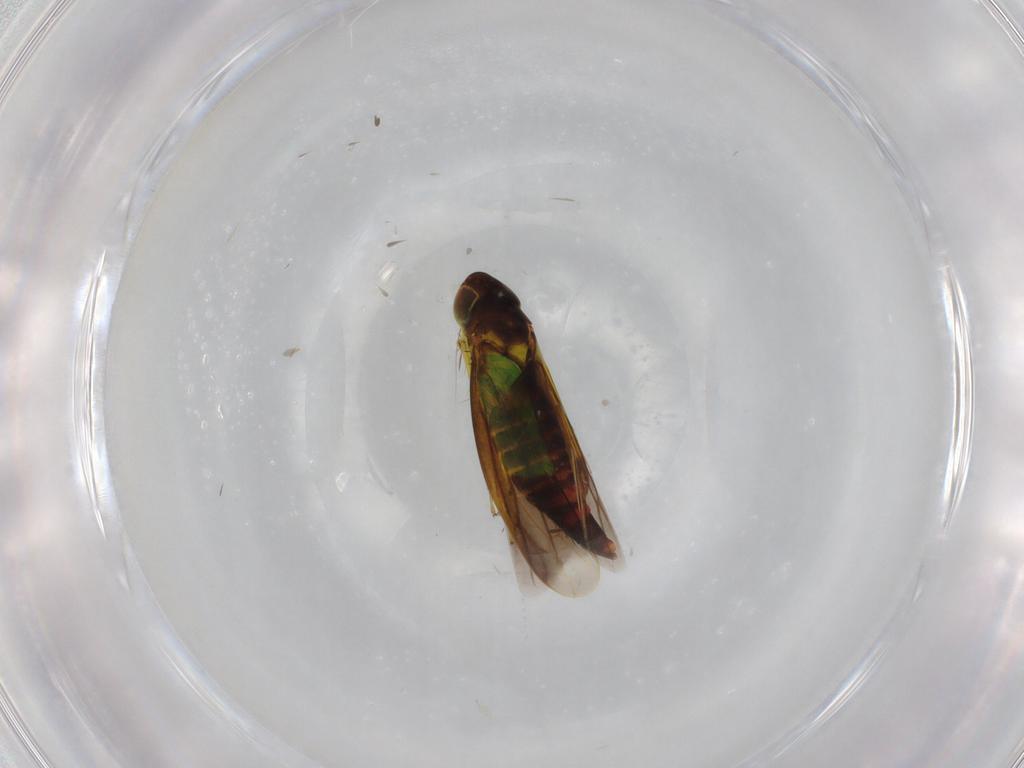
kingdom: Animalia
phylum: Arthropoda
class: Insecta
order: Hemiptera
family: Cicadellidae
